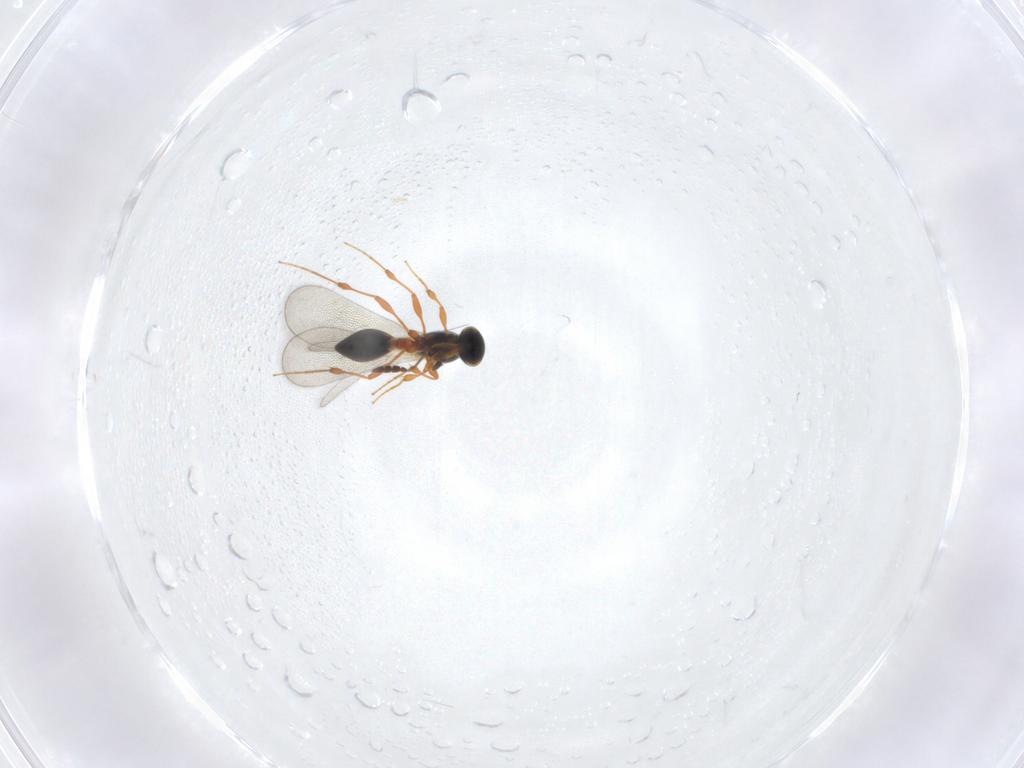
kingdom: Animalia
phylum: Arthropoda
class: Insecta
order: Hymenoptera
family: Platygastridae
